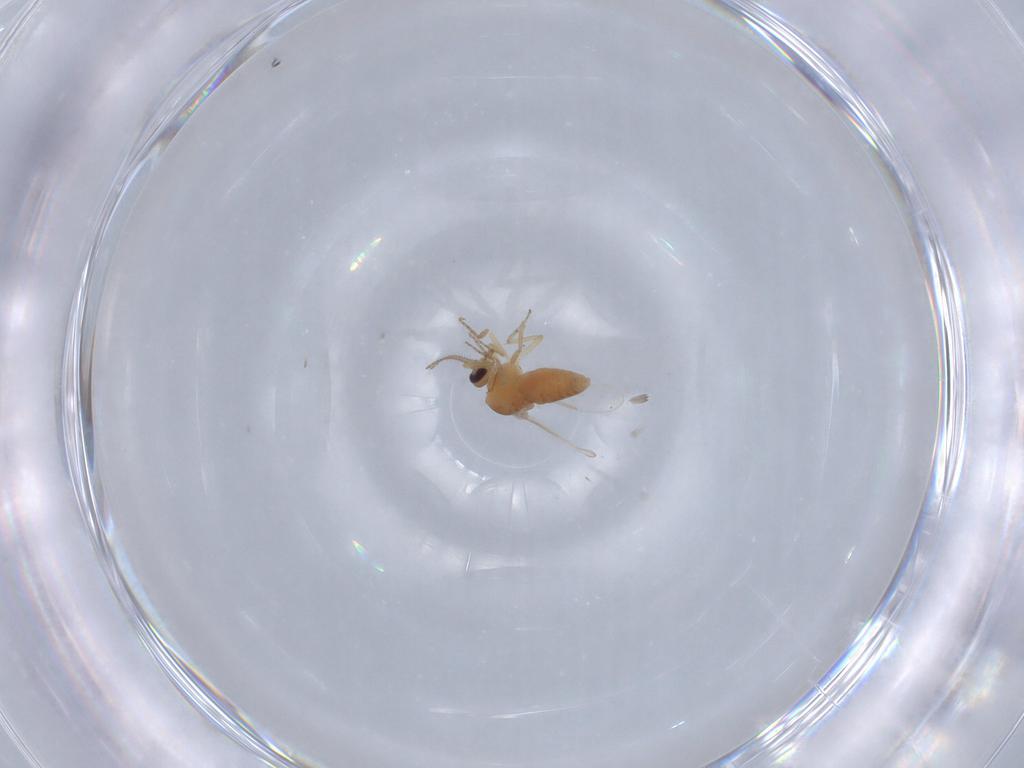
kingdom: Animalia
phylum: Arthropoda
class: Insecta
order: Diptera
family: Ceratopogonidae
